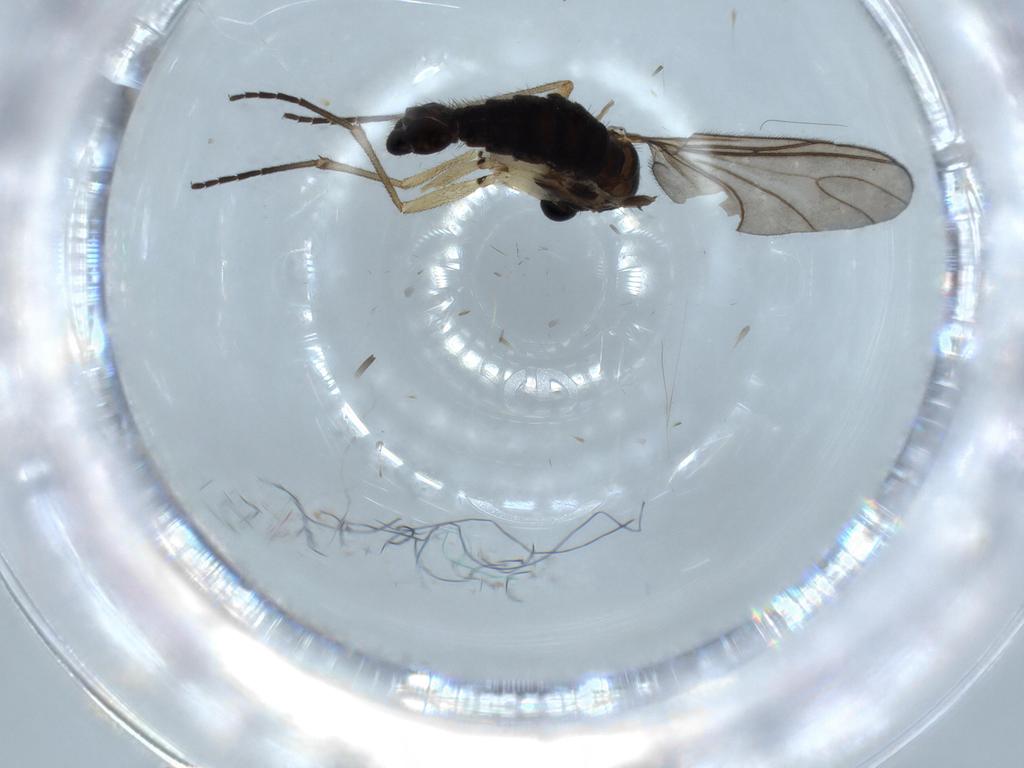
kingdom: Animalia
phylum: Arthropoda
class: Insecta
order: Diptera
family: Sciaridae
